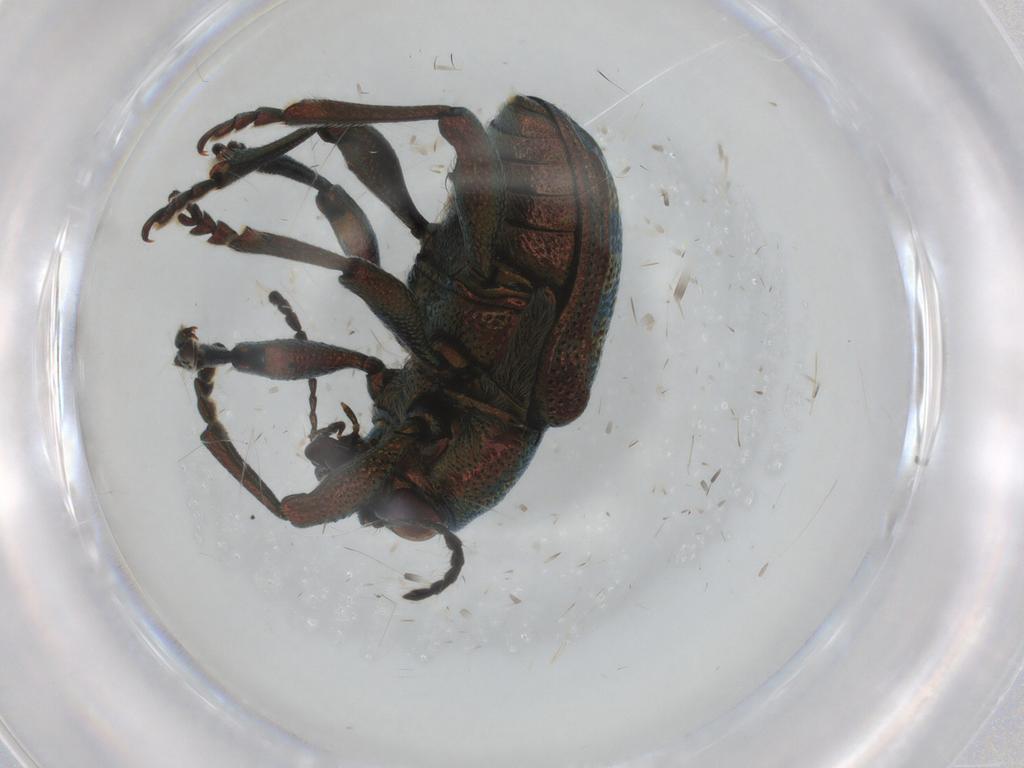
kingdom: Animalia
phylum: Arthropoda
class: Insecta
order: Coleoptera
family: Chrysomelidae
